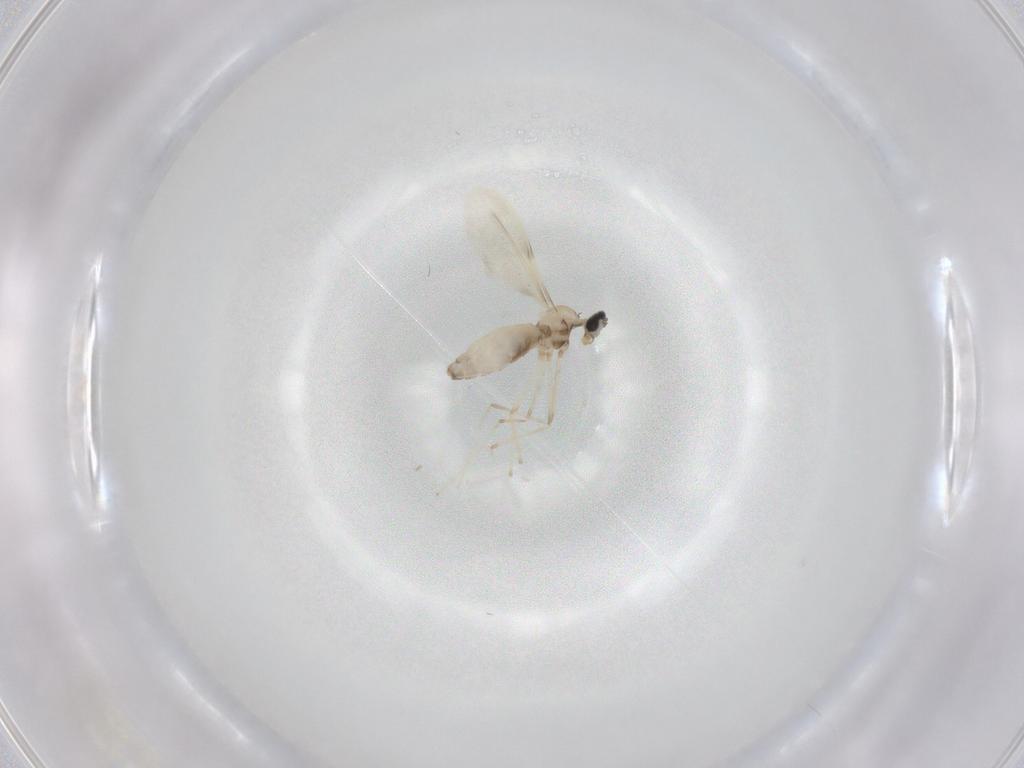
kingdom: Animalia
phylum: Arthropoda
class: Insecta
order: Diptera
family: Cecidomyiidae
